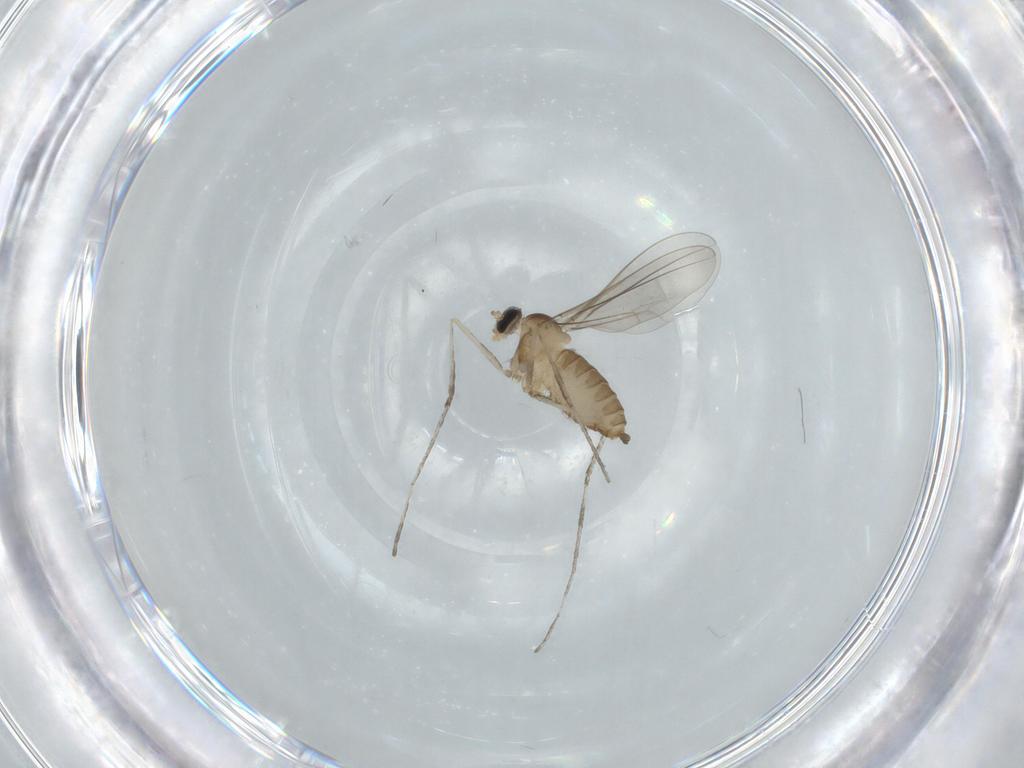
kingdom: Animalia
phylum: Arthropoda
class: Insecta
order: Diptera
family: Cecidomyiidae
